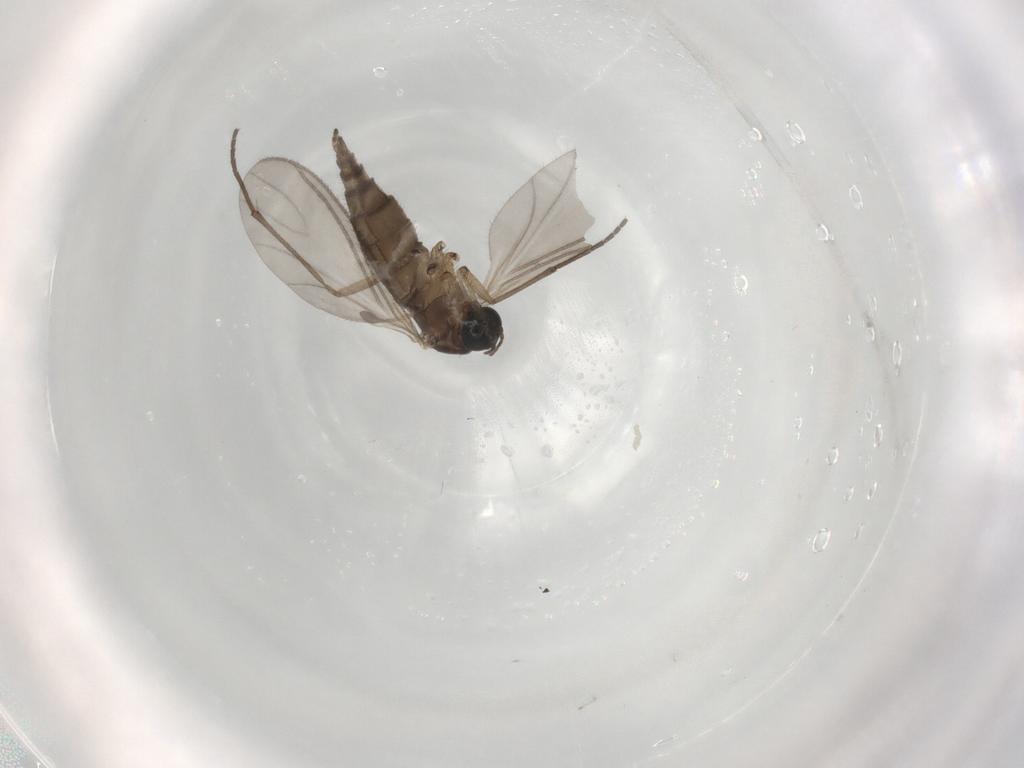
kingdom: Animalia
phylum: Arthropoda
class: Insecta
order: Diptera
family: Sciaridae
